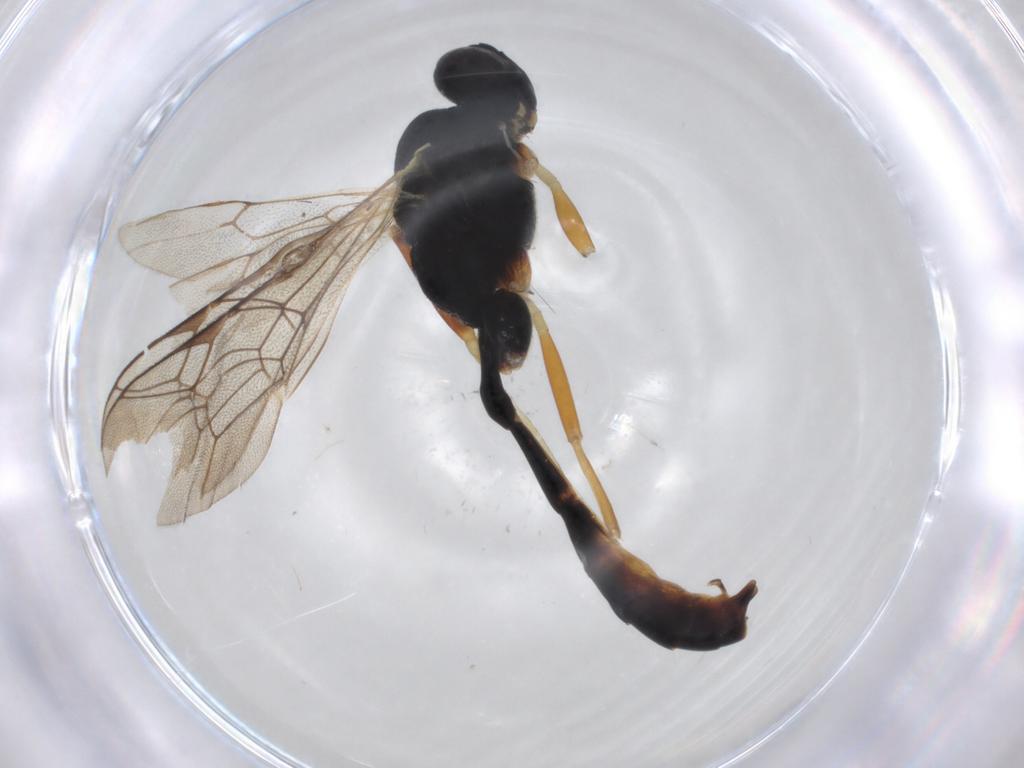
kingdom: Animalia
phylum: Arthropoda
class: Insecta
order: Hymenoptera
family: Ichneumonidae
